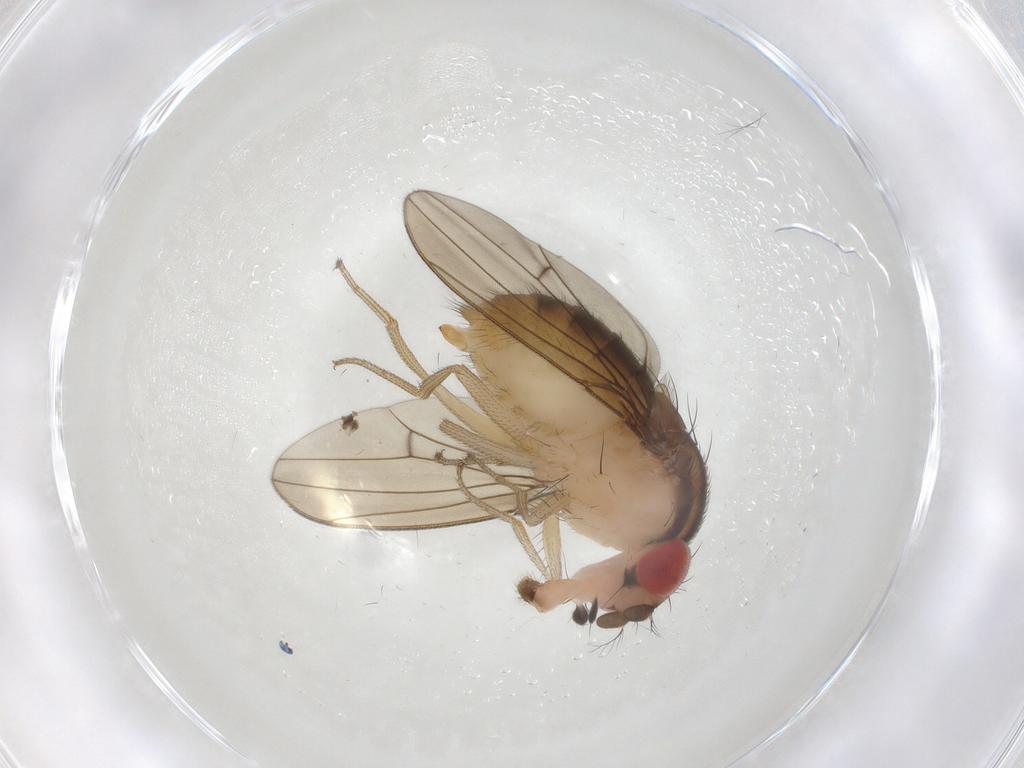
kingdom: Animalia
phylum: Arthropoda
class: Insecta
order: Diptera
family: Drosophilidae
